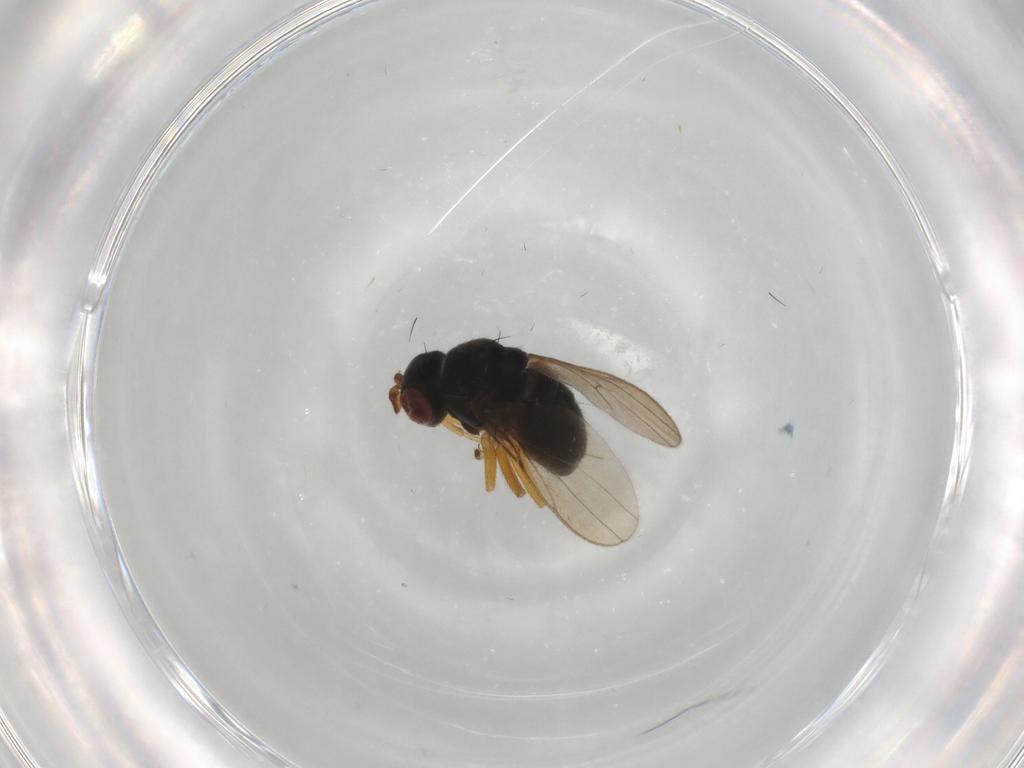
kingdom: Animalia
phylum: Arthropoda
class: Insecta
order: Diptera
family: Ephydridae
